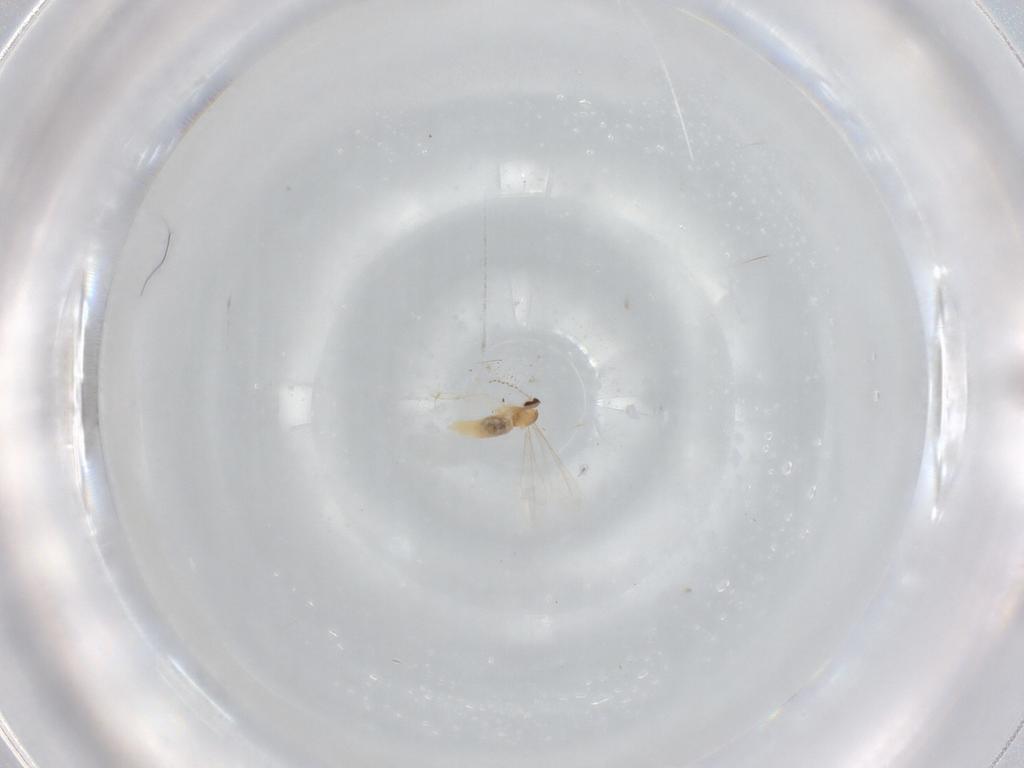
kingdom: Animalia
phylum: Arthropoda
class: Insecta
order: Diptera
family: Cecidomyiidae
